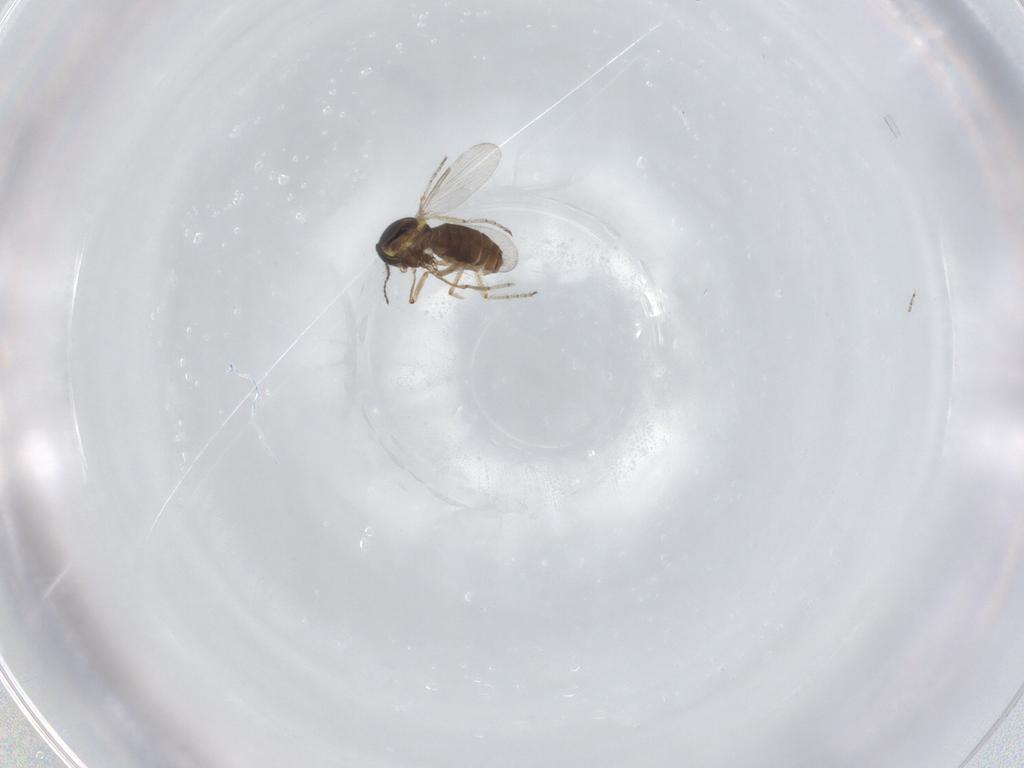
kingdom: Animalia
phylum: Arthropoda
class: Insecta
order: Diptera
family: Ceratopogonidae
